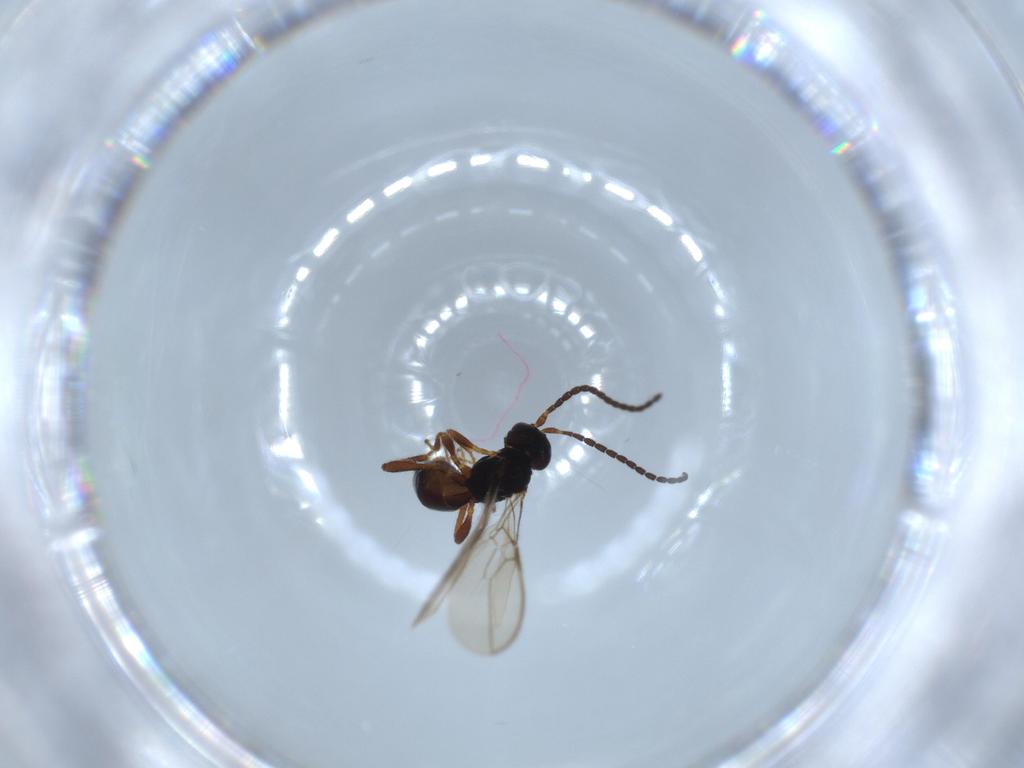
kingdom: Animalia
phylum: Arthropoda
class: Insecta
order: Hymenoptera
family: Braconidae
